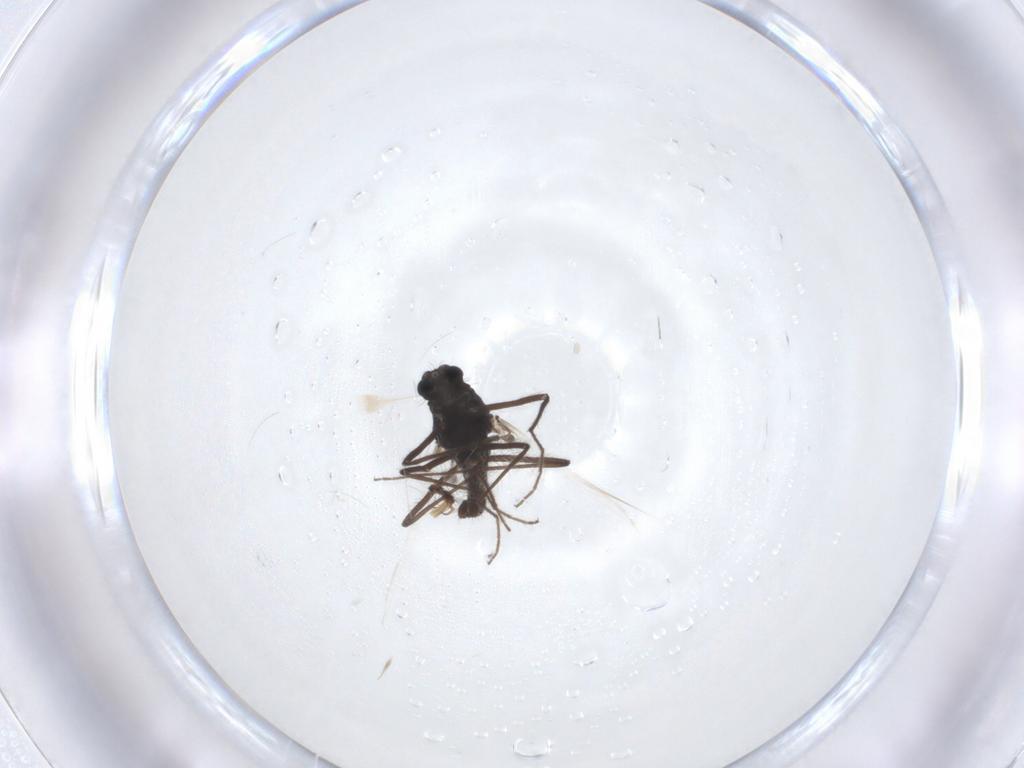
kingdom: Animalia
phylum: Arthropoda
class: Insecta
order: Diptera
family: Pipunculidae
